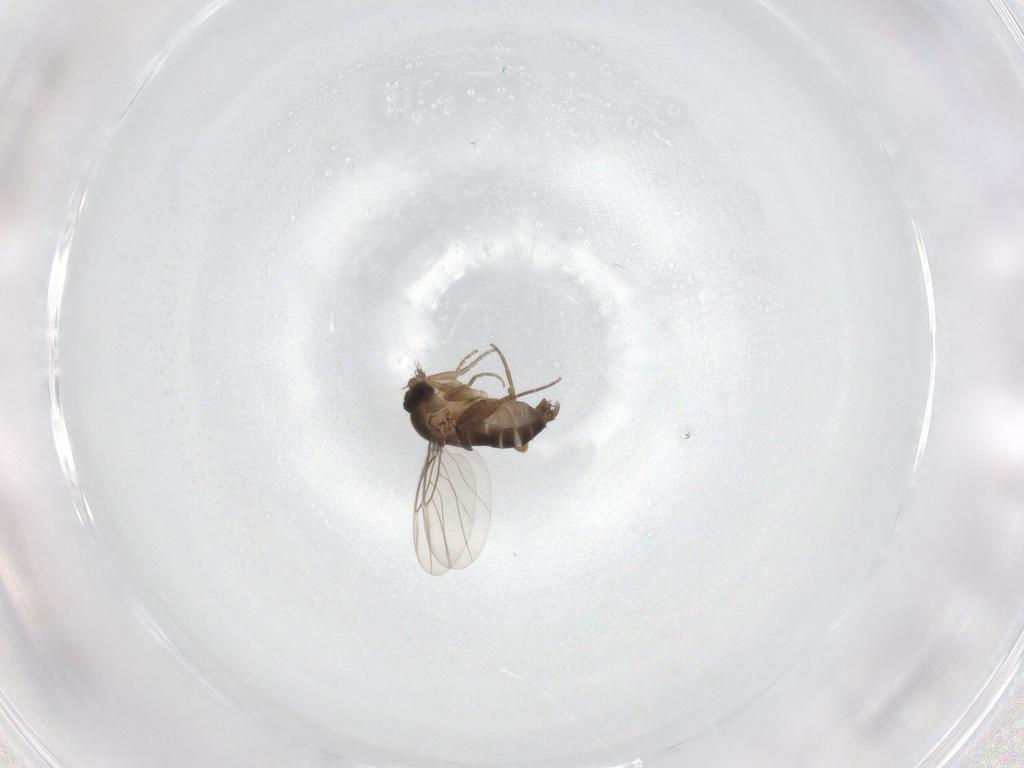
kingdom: Animalia
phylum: Arthropoda
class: Insecta
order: Diptera
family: Phoridae
